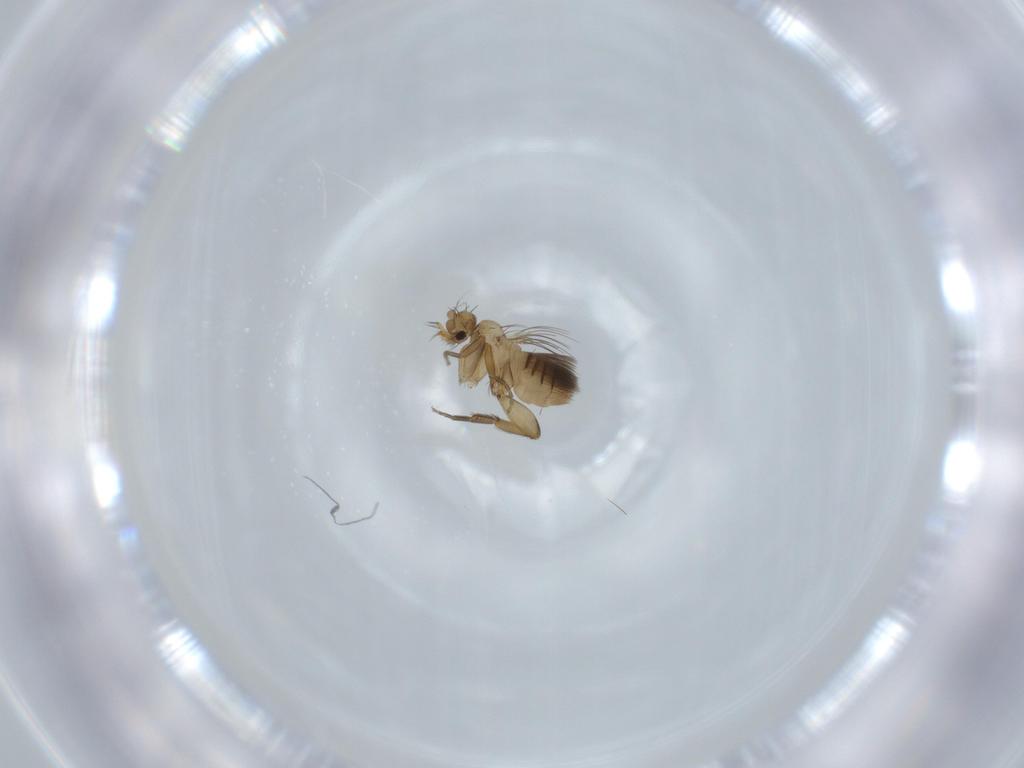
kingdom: Animalia
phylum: Arthropoda
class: Insecta
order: Diptera
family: Phoridae
